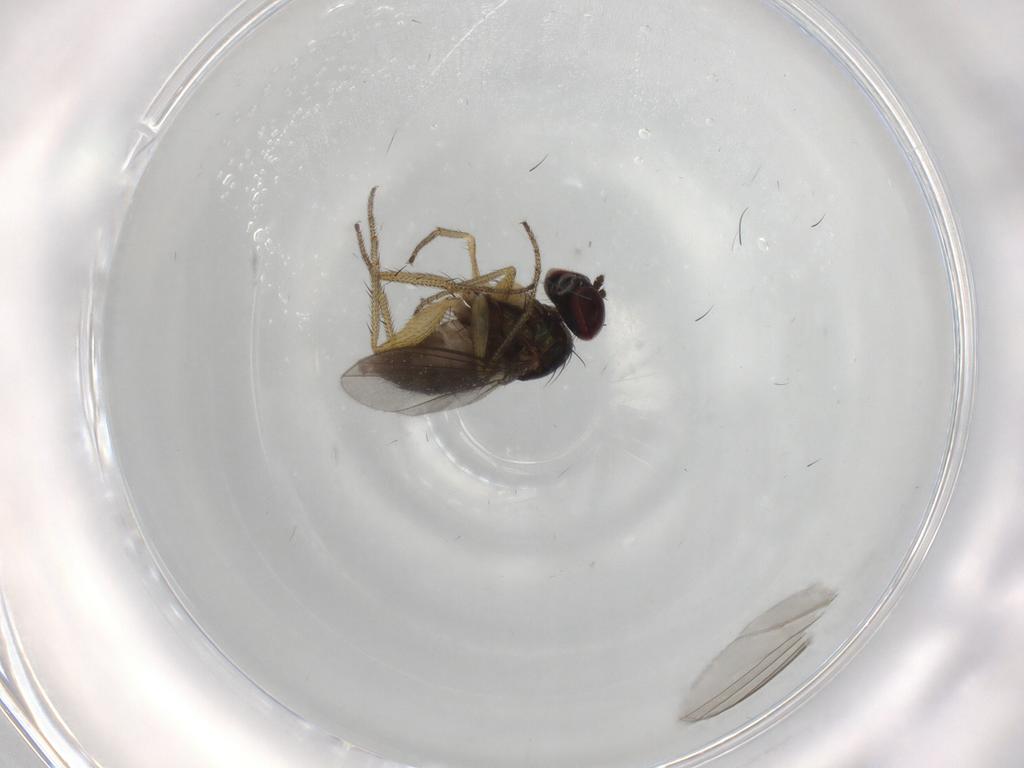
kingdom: Animalia
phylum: Arthropoda
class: Insecta
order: Diptera
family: Dolichopodidae
